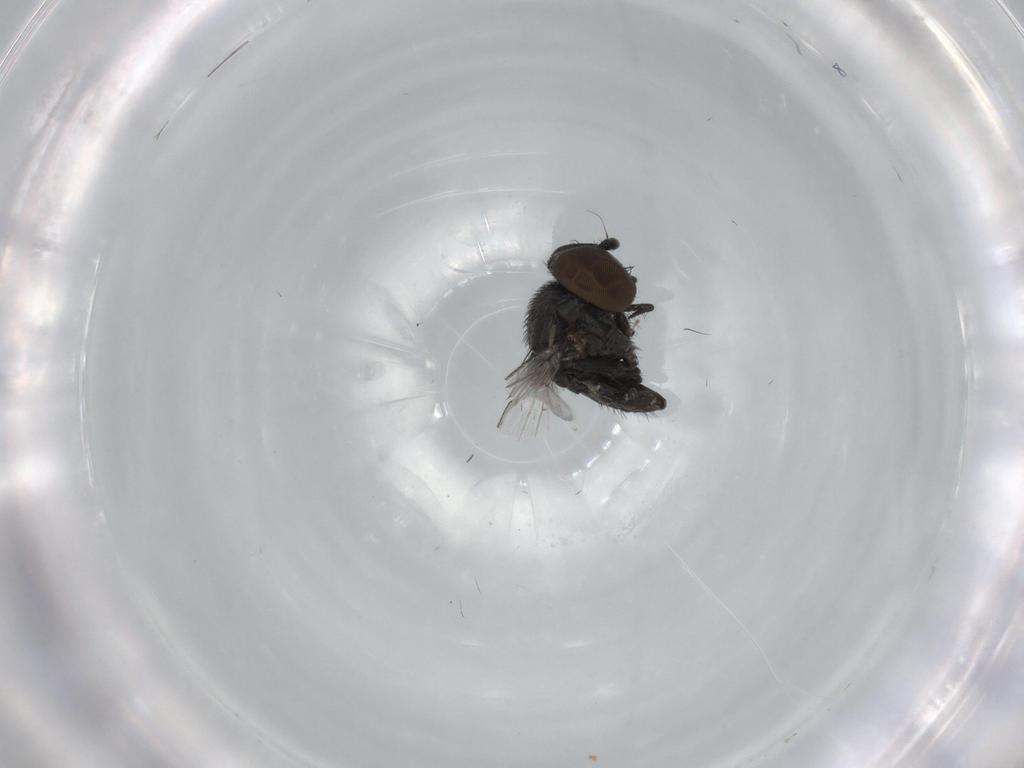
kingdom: Animalia
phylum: Arthropoda
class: Insecta
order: Diptera
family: Milichiidae
